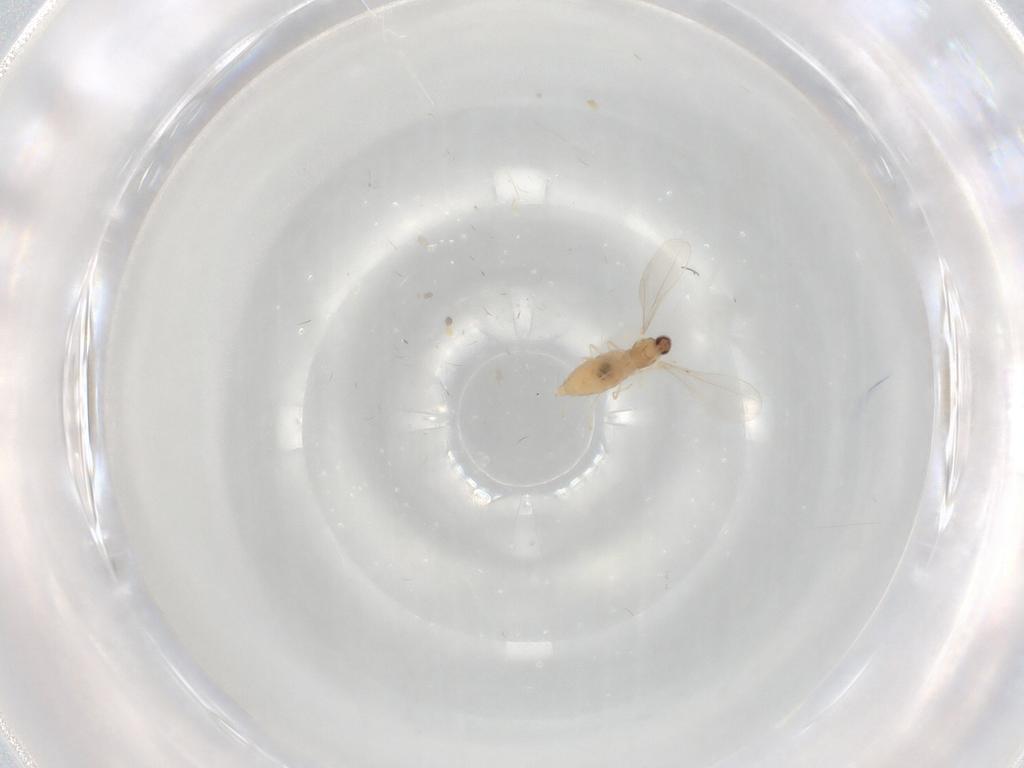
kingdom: Animalia
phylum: Arthropoda
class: Insecta
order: Diptera
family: Cecidomyiidae
